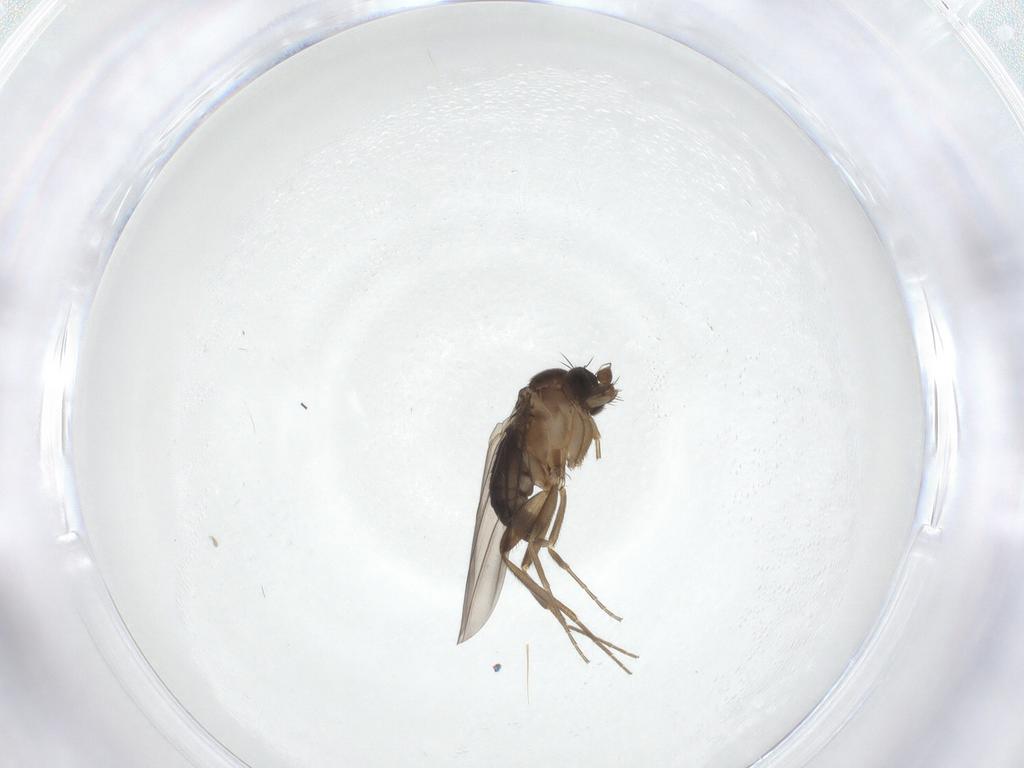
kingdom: Animalia
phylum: Arthropoda
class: Insecta
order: Diptera
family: Phoridae
